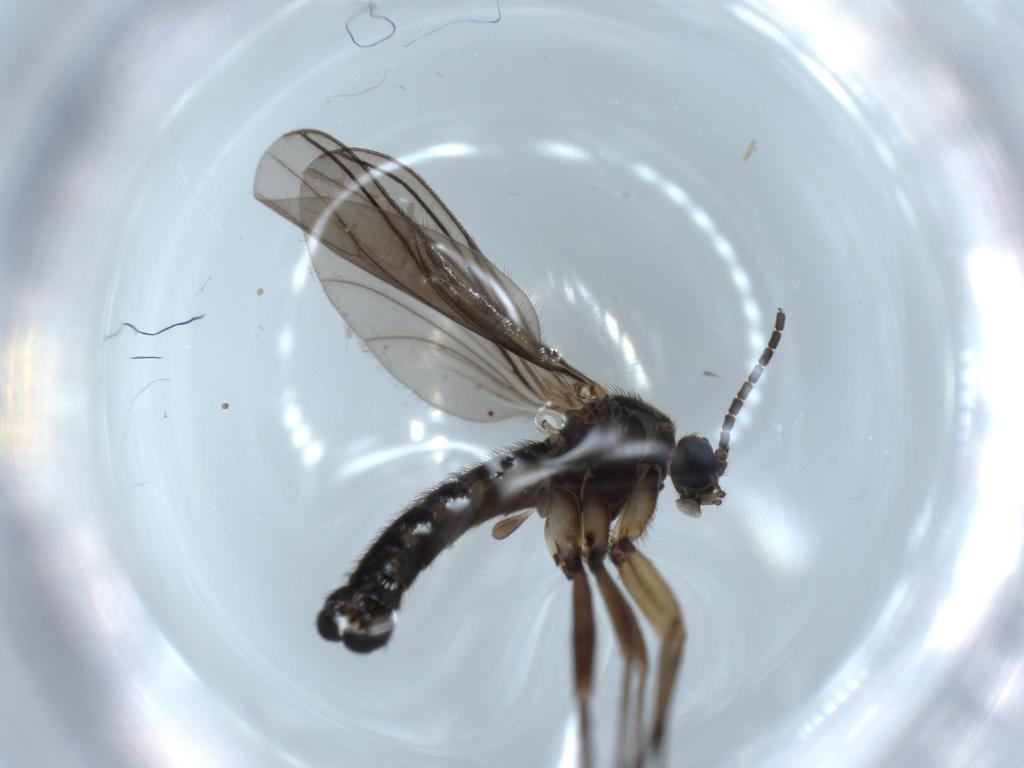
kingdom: Animalia
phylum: Arthropoda
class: Insecta
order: Diptera
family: Sciaridae
